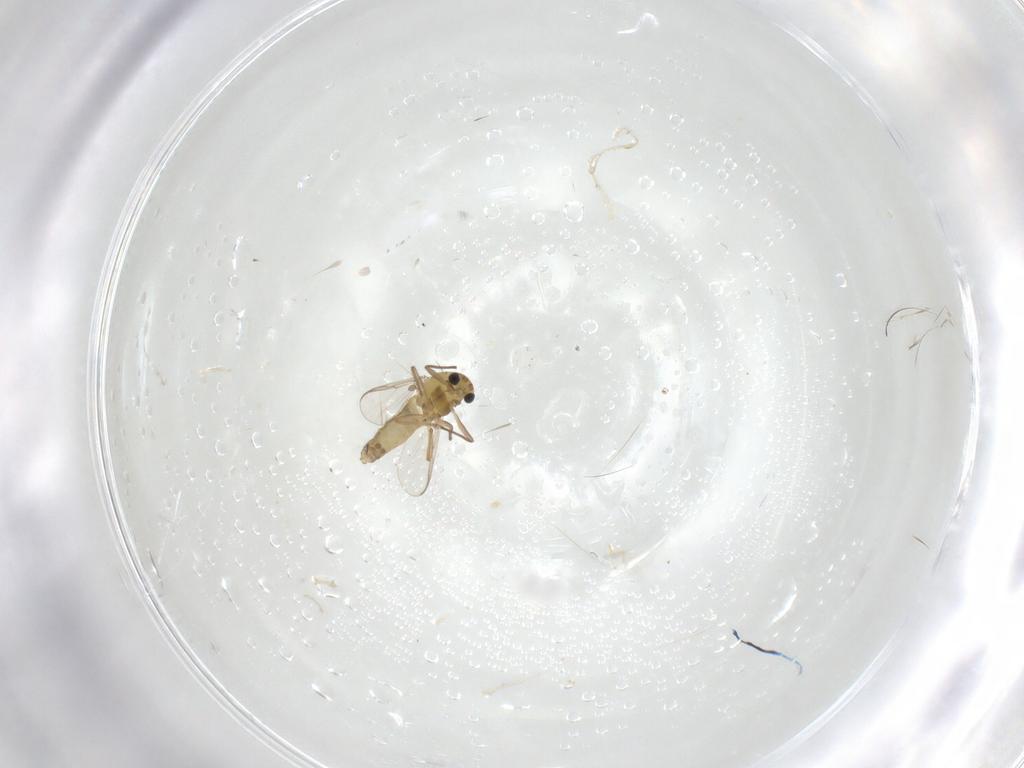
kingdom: Animalia
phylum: Arthropoda
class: Insecta
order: Diptera
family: Chironomidae
